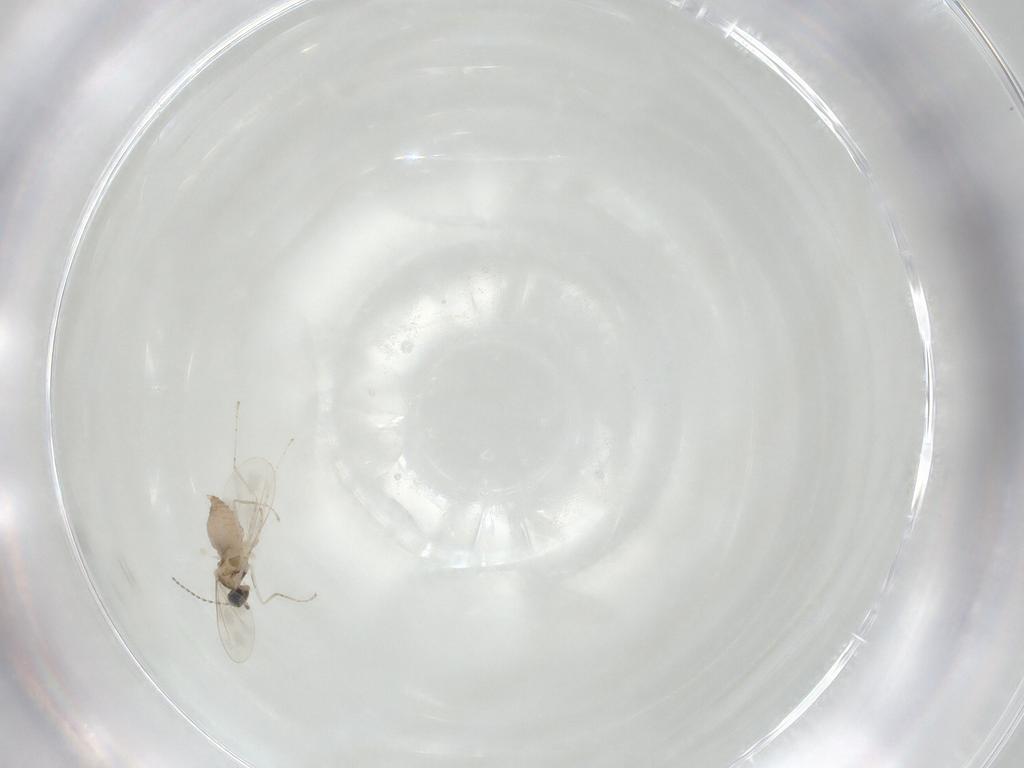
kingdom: Animalia
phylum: Arthropoda
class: Insecta
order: Diptera
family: Cecidomyiidae
